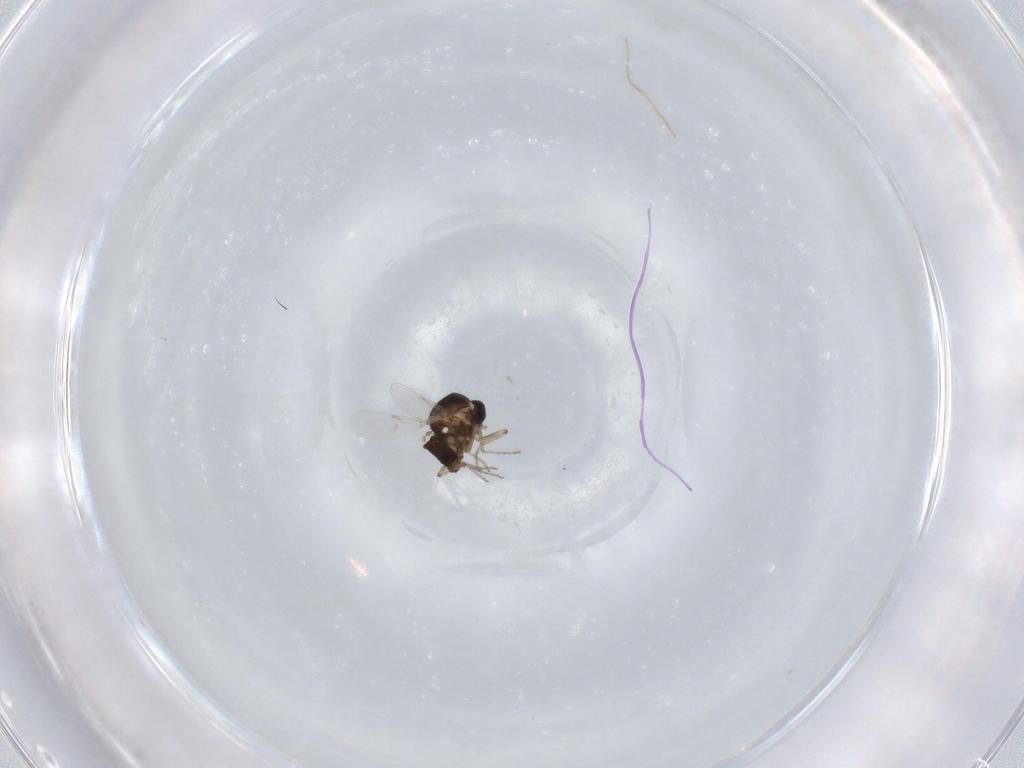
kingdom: Animalia
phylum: Arthropoda
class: Insecta
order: Diptera
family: Ceratopogonidae
